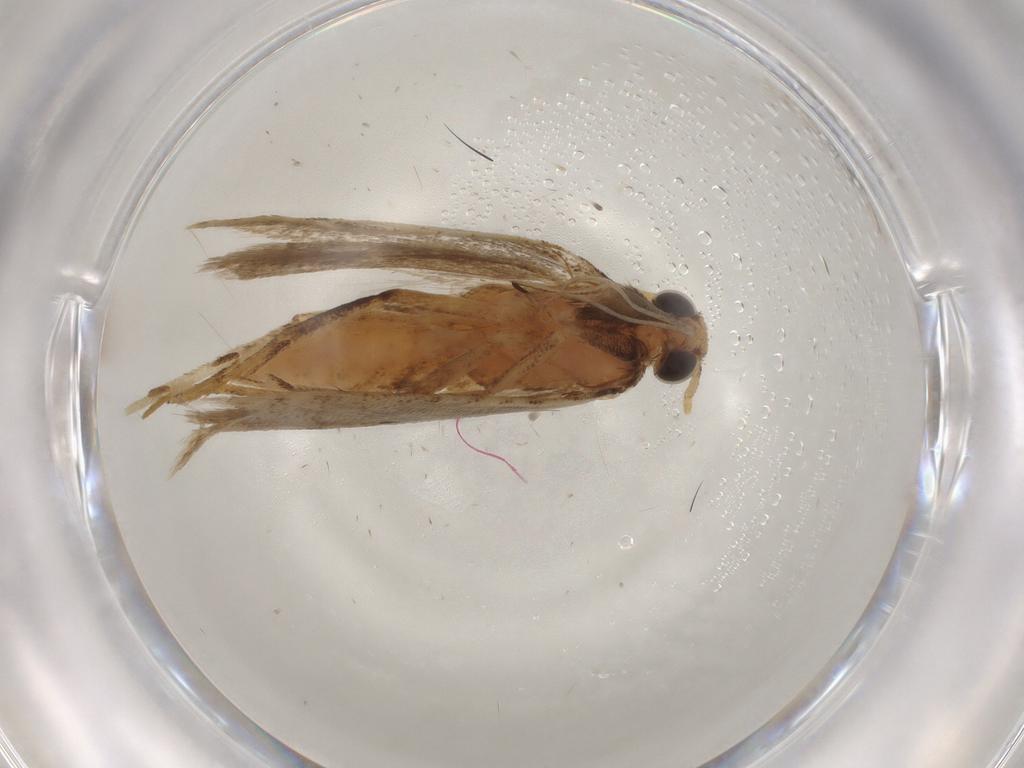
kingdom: Animalia
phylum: Arthropoda
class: Insecta
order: Lepidoptera
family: Gelechiidae
